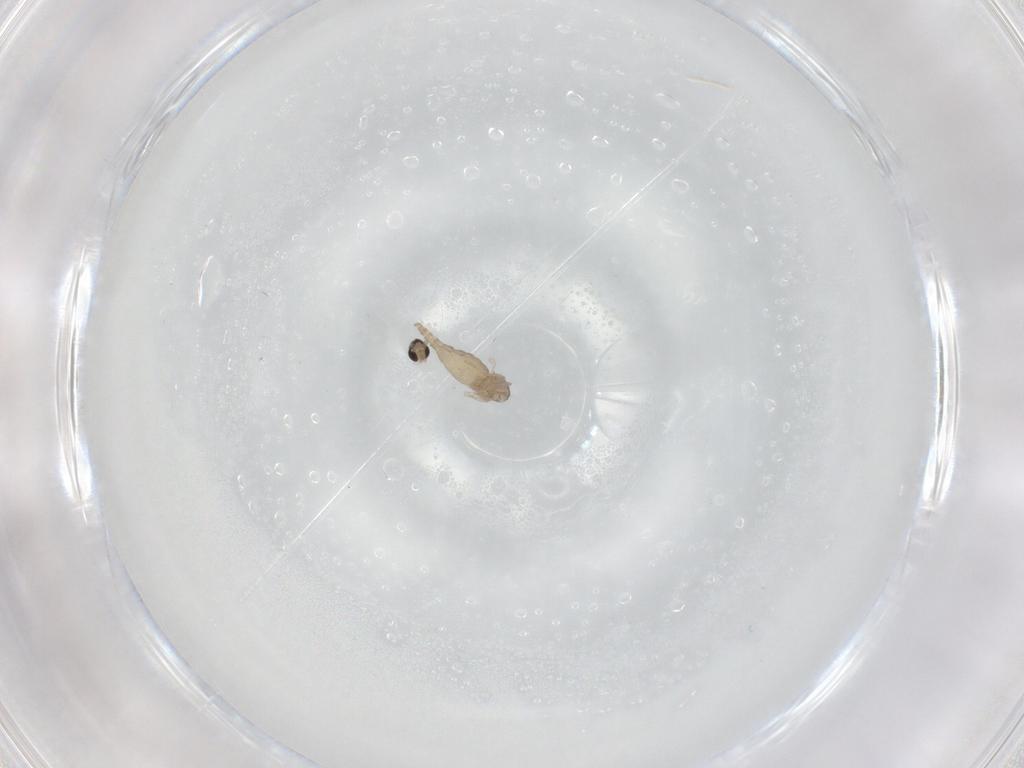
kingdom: Animalia
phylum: Arthropoda
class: Insecta
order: Diptera
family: Cecidomyiidae
